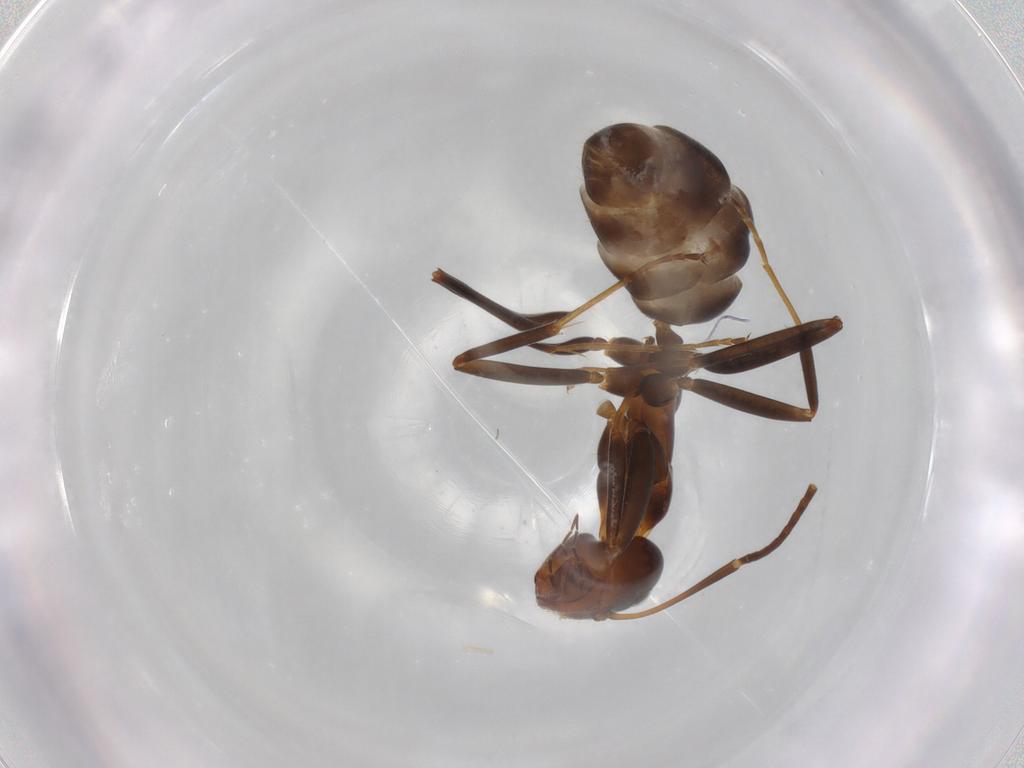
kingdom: Animalia
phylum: Arthropoda
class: Insecta
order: Hymenoptera
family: Formicidae
